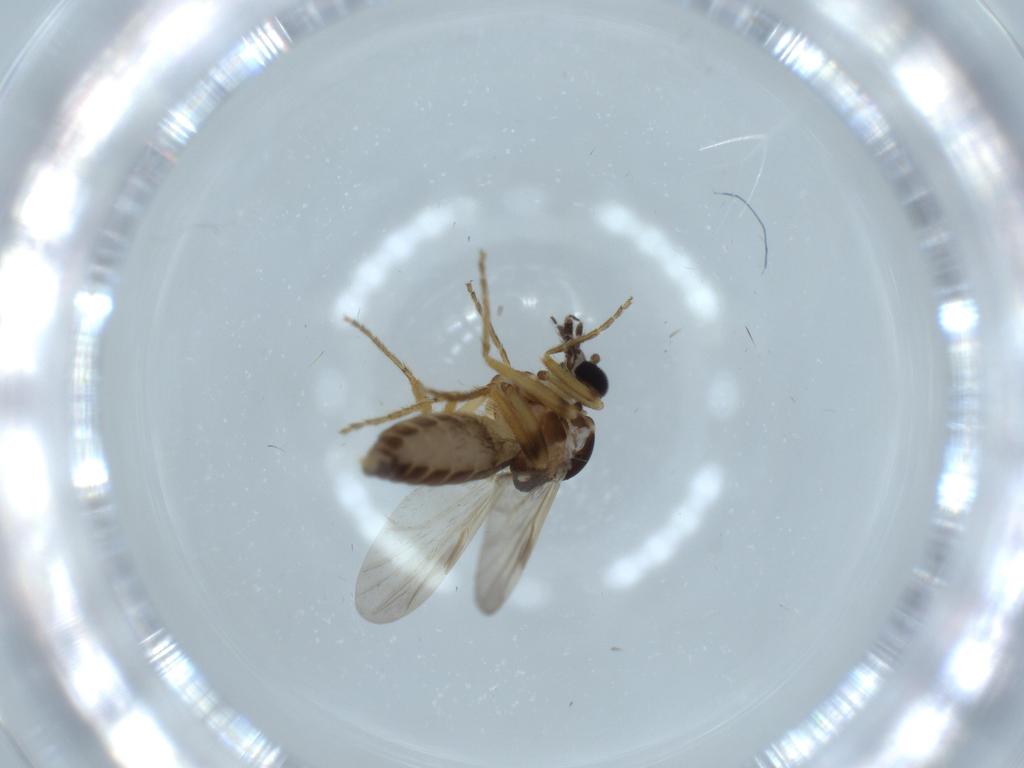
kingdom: Animalia
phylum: Arthropoda
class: Insecta
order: Diptera
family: Ceratopogonidae
